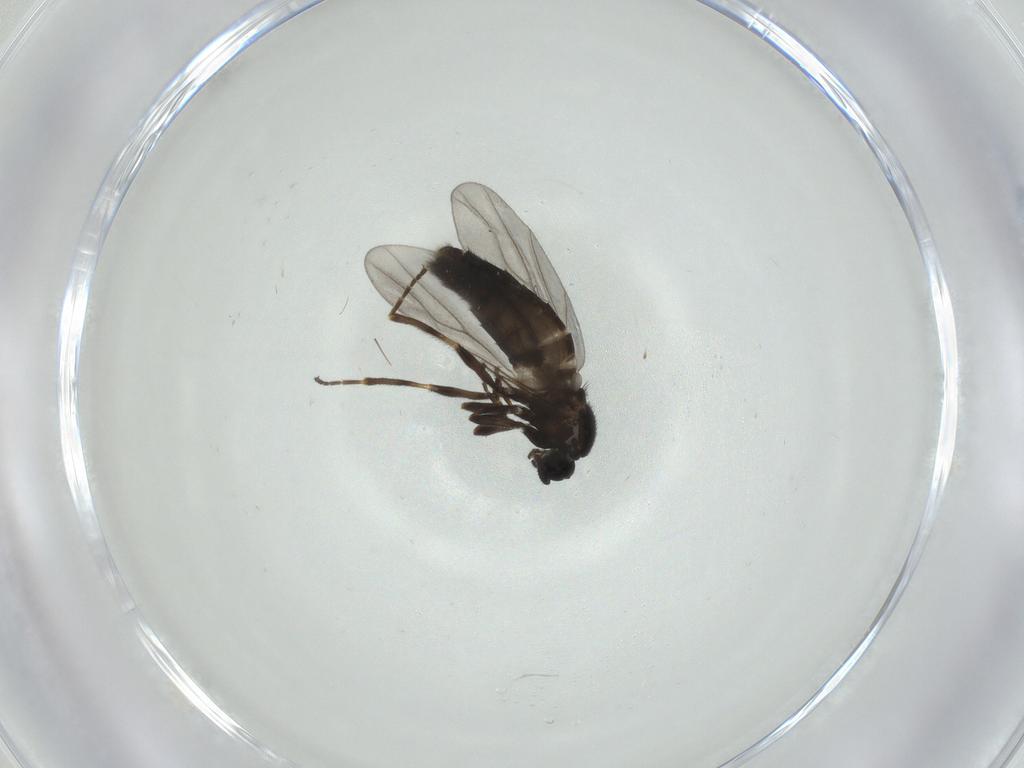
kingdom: Animalia
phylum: Arthropoda
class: Insecta
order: Diptera
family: Scatopsidae
